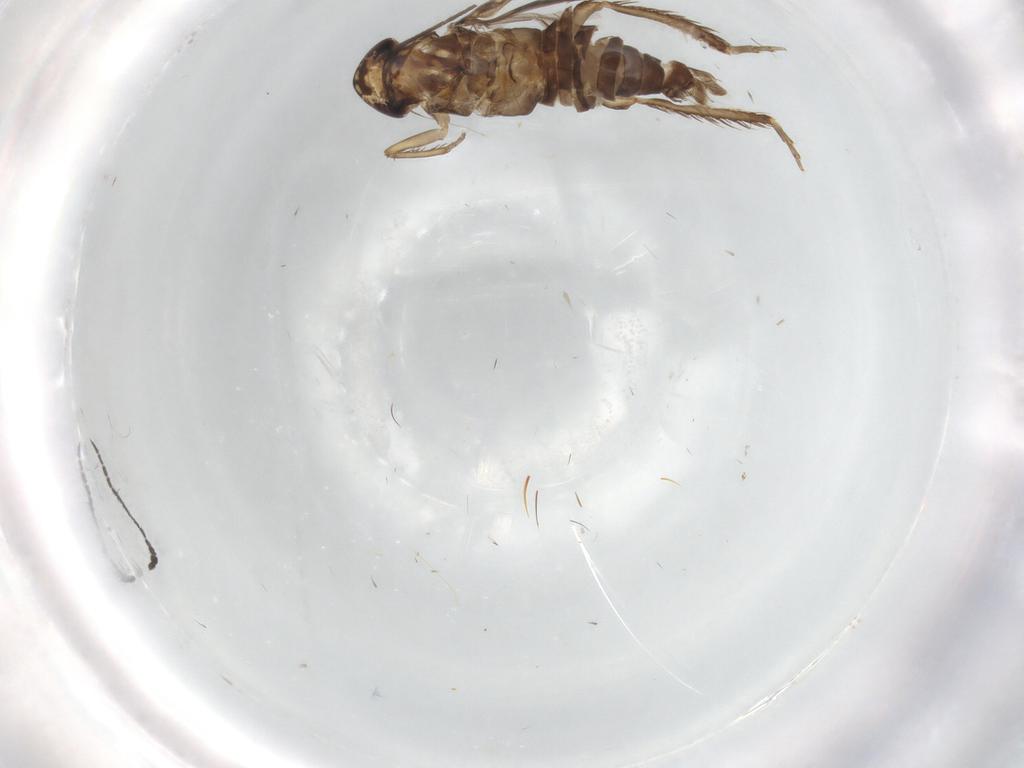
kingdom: Animalia
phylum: Arthropoda
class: Insecta
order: Hemiptera
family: Cicadellidae
